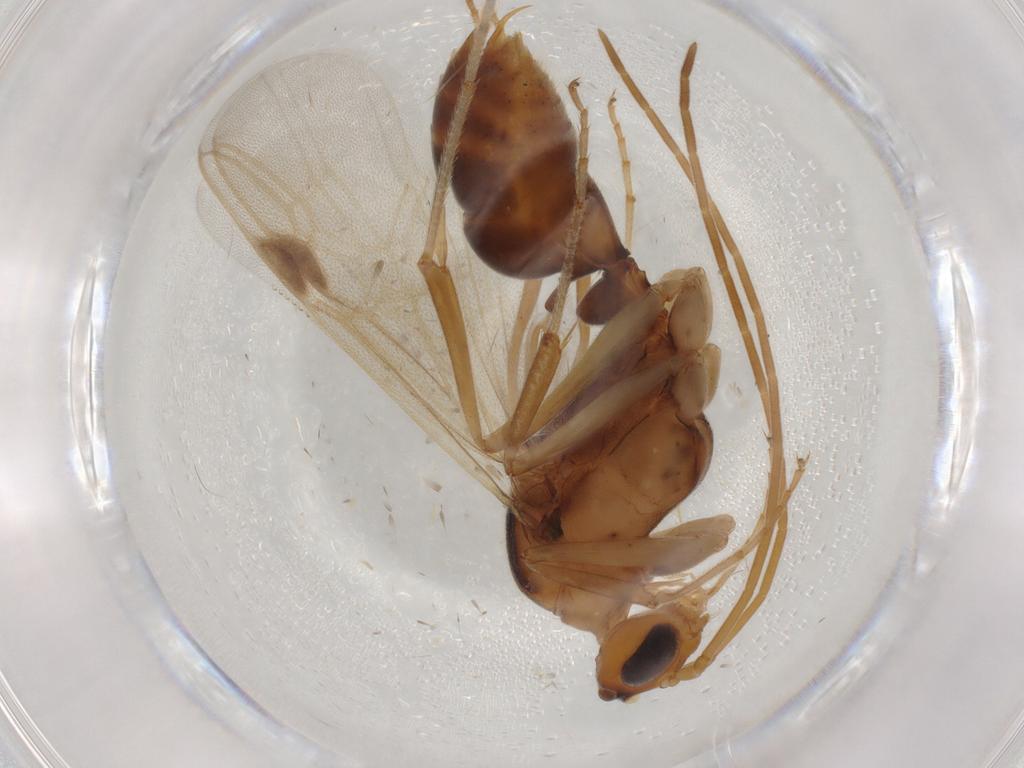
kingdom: Animalia
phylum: Arthropoda
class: Insecta
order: Hymenoptera
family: Formicidae
